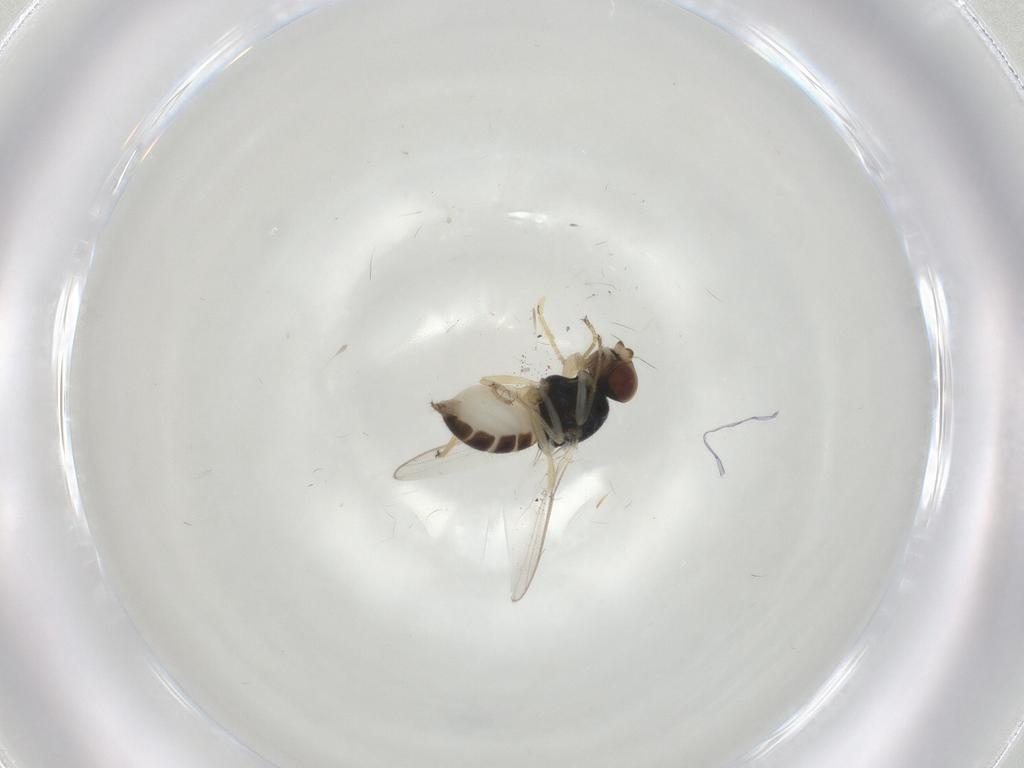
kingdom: Animalia
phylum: Arthropoda
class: Insecta
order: Diptera
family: Chloropidae
